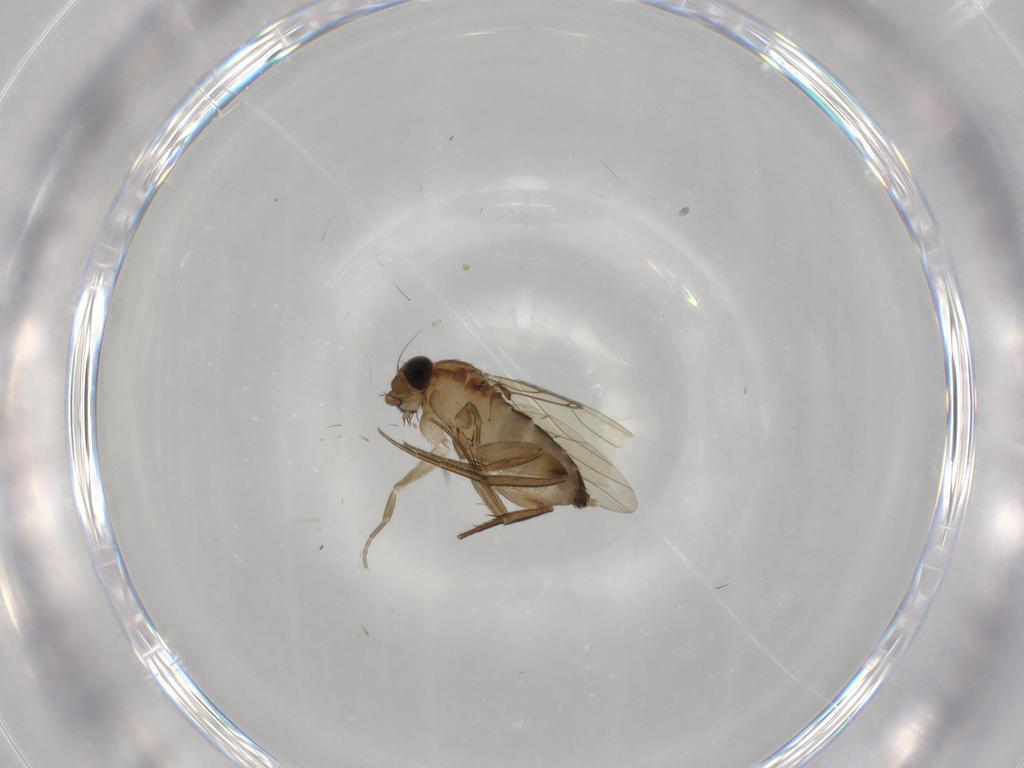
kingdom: Animalia
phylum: Arthropoda
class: Insecta
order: Diptera
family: Phoridae
